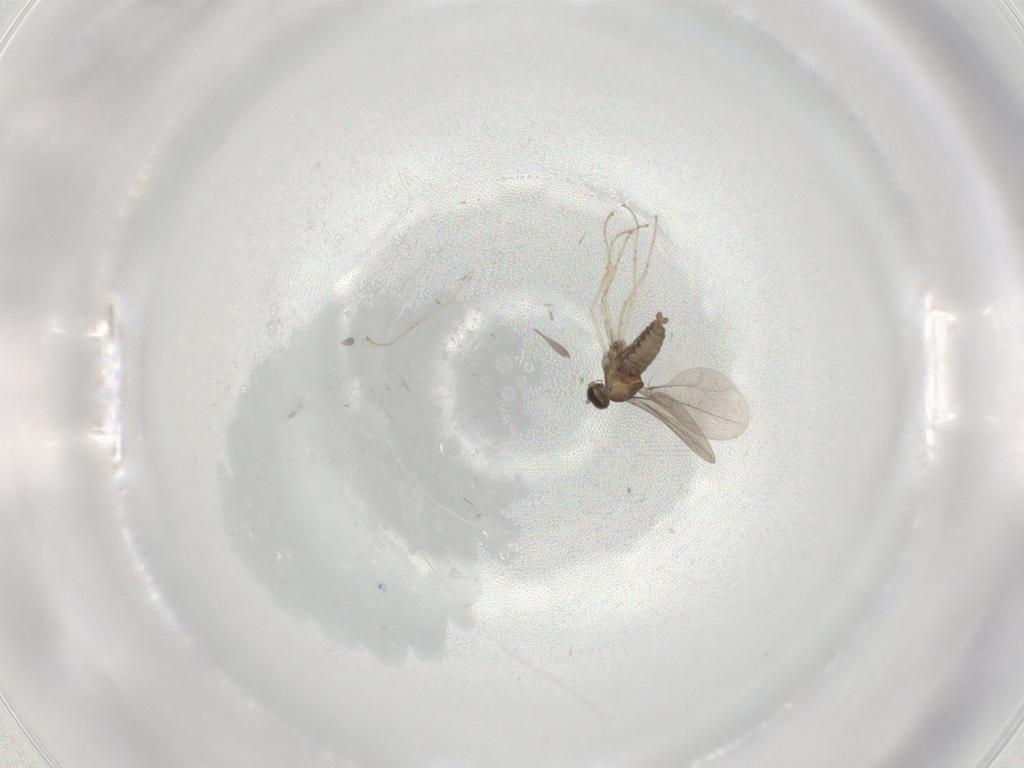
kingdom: Animalia
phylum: Arthropoda
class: Insecta
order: Diptera
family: Cecidomyiidae
